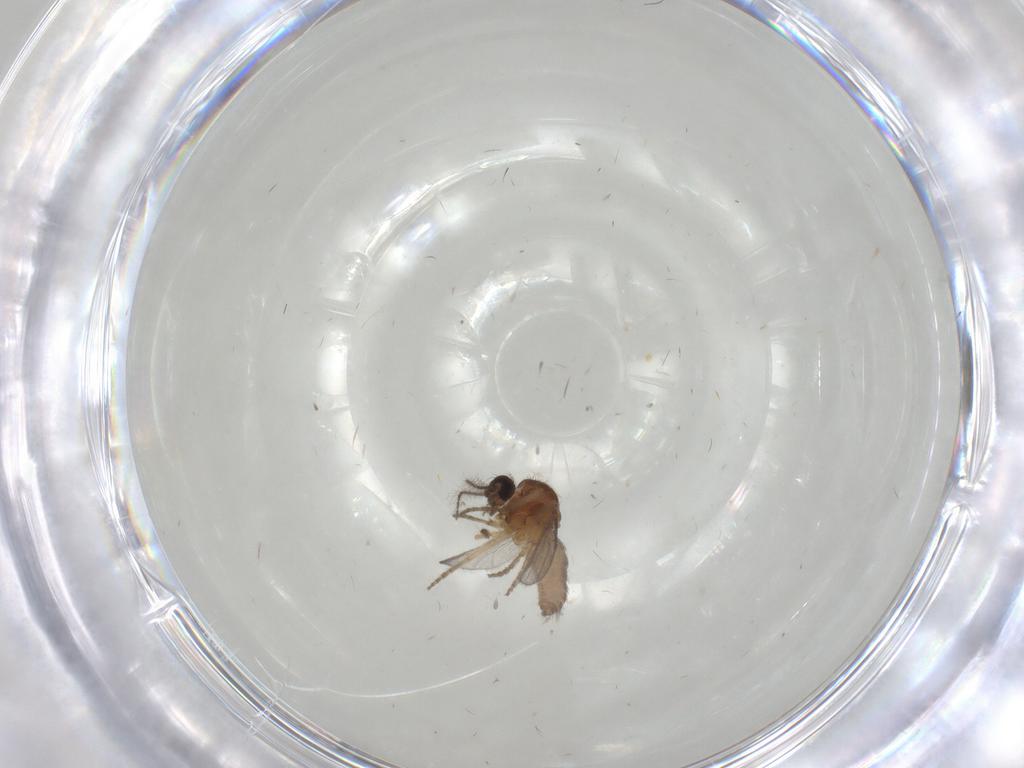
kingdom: Animalia
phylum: Arthropoda
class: Insecta
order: Diptera
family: Ceratopogonidae
